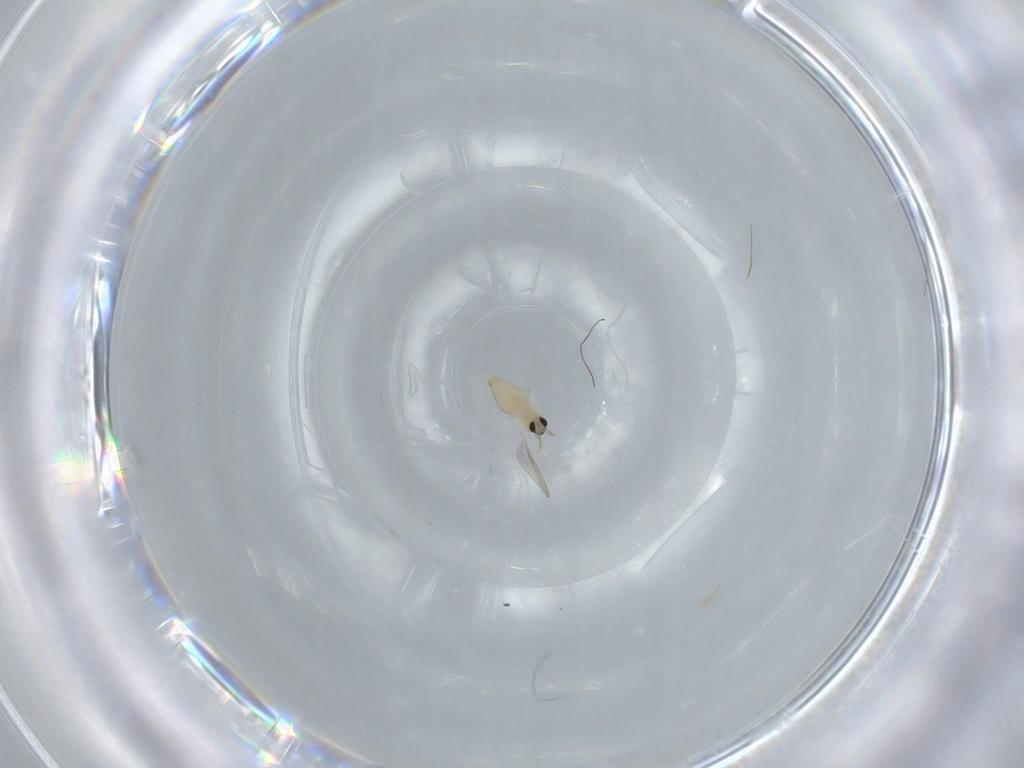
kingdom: Animalia
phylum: Arthropoda
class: Insecta
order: Diptera
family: Cecidomyiidae
